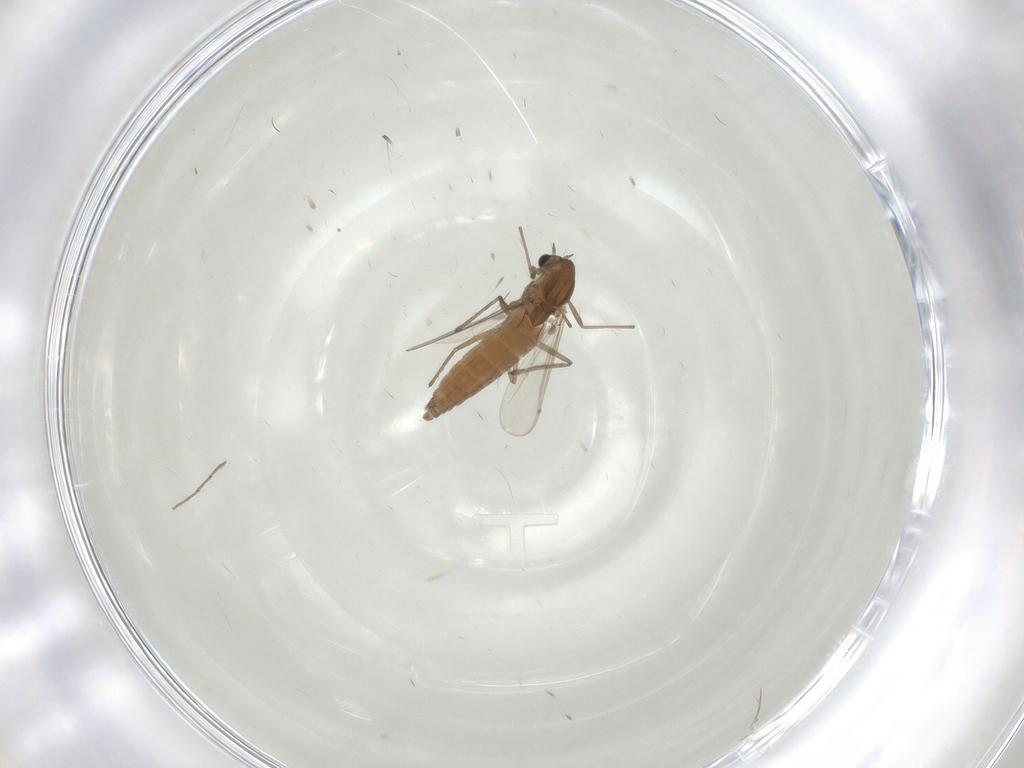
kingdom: Animalia
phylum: Arthropoda
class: Insecta
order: Diptera
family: Chironomidae
